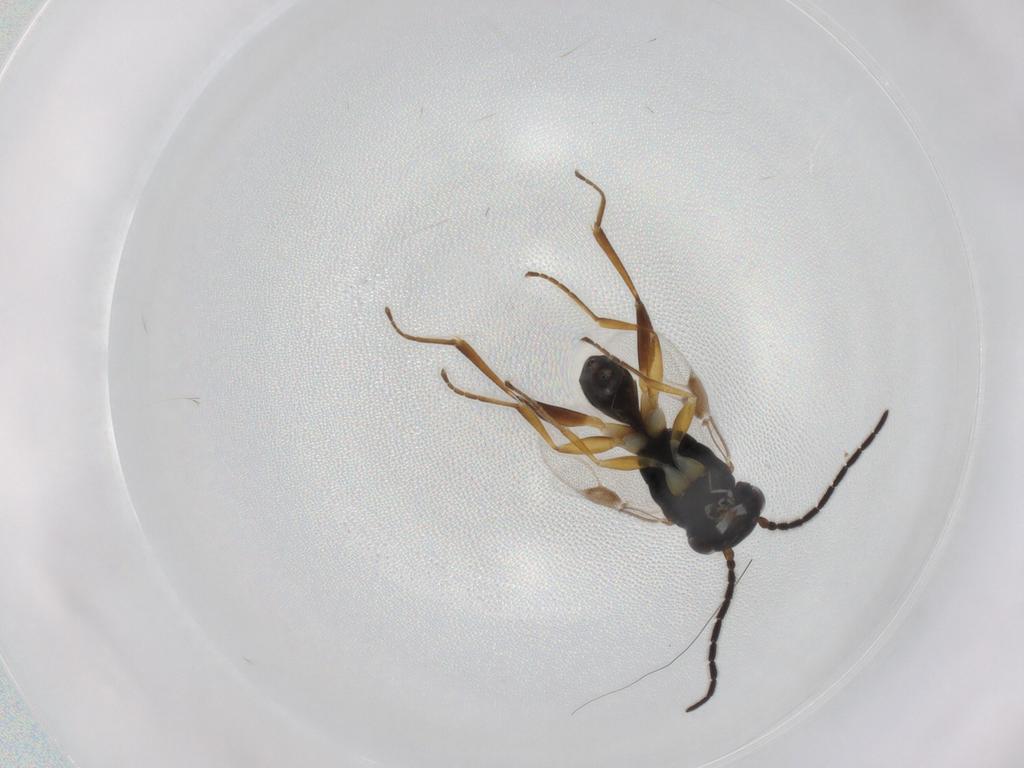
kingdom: Animalia
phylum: Arthropoda
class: Insecta
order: Hymenoptera
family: Dryinidae
